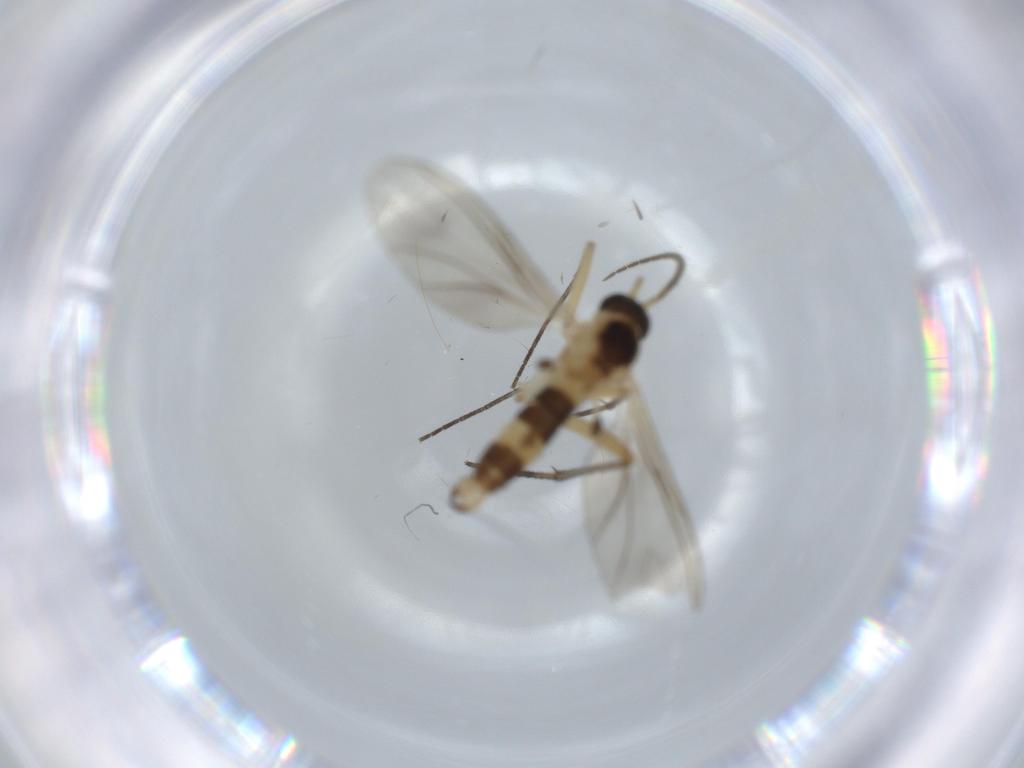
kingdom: Animalia
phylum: Arthropoda
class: Insecta
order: Diptera
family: Sciaridae
